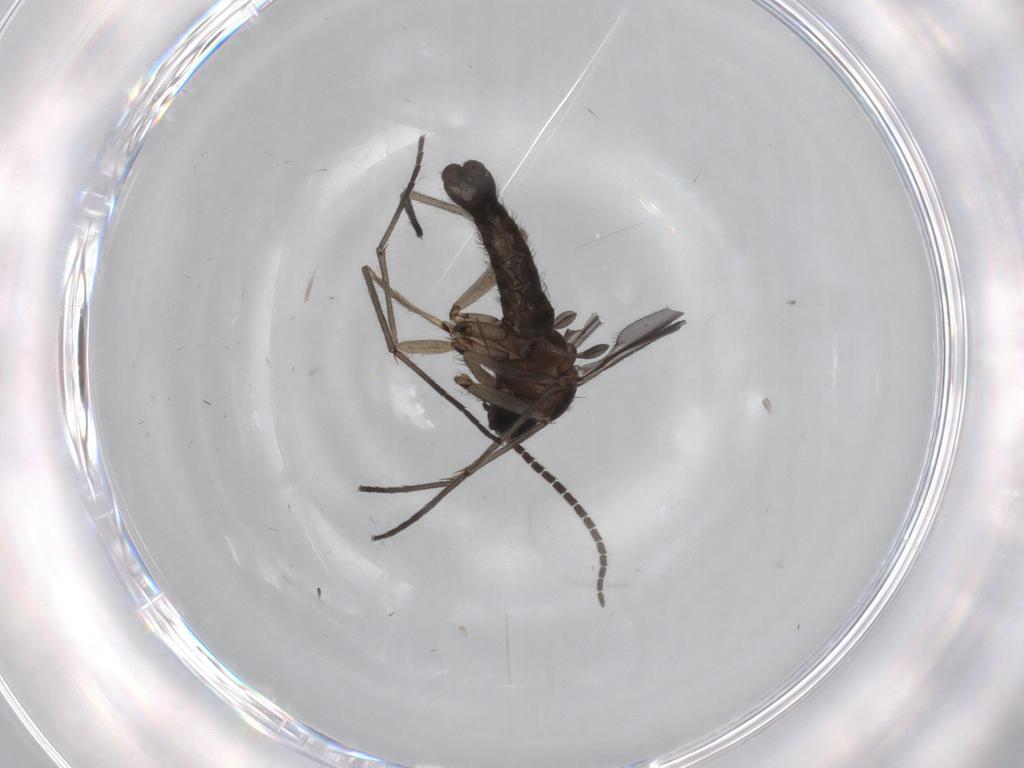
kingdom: Animalia
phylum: Arthropoda
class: Insecta
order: Diptera
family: Sciaridae
